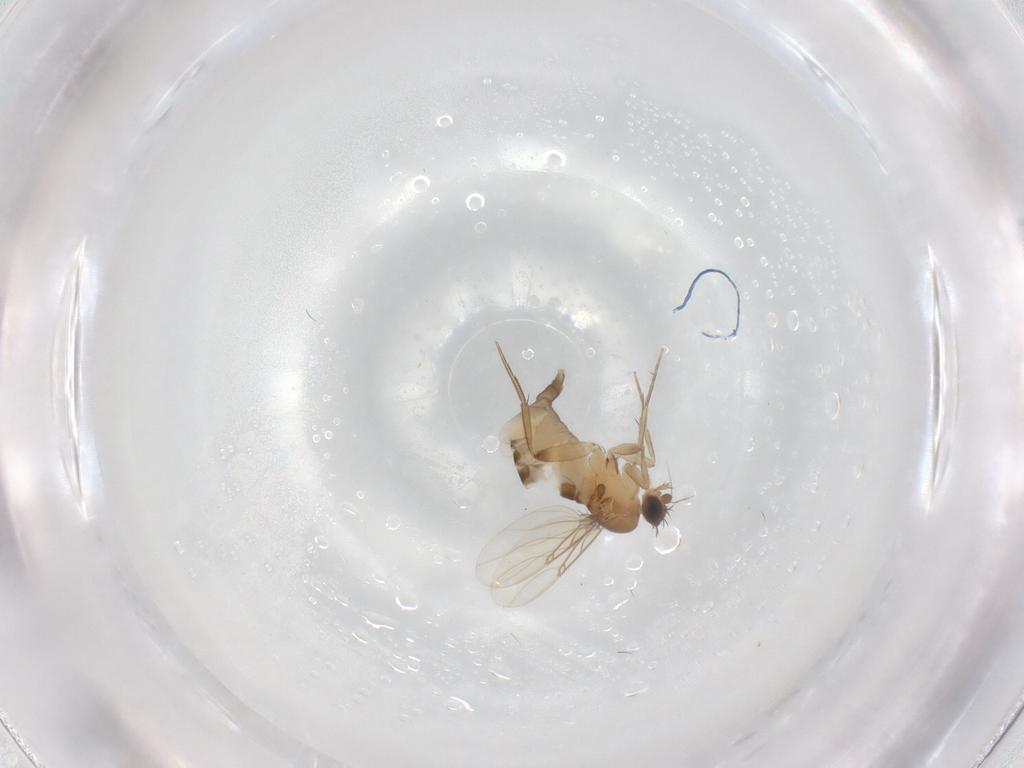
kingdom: Animalia
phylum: Arthropoda
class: Insecta
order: Diptera
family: Phoridae
